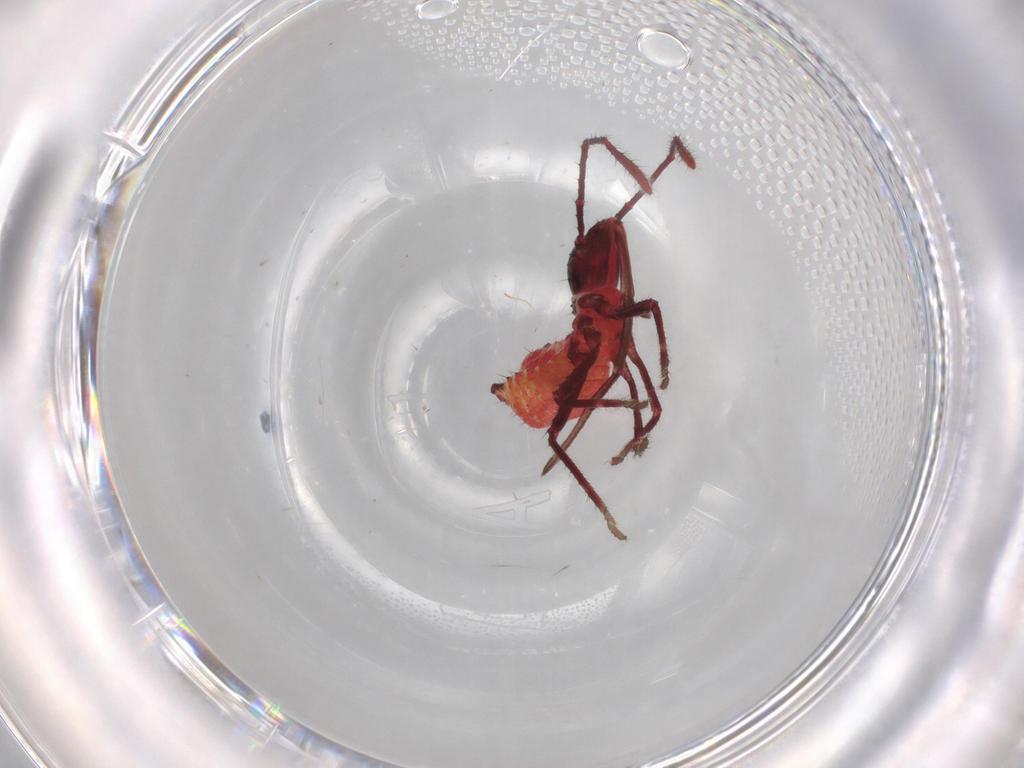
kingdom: Animalia
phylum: Arthropoda
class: Insecta
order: Hemiptera
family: Coreidae
